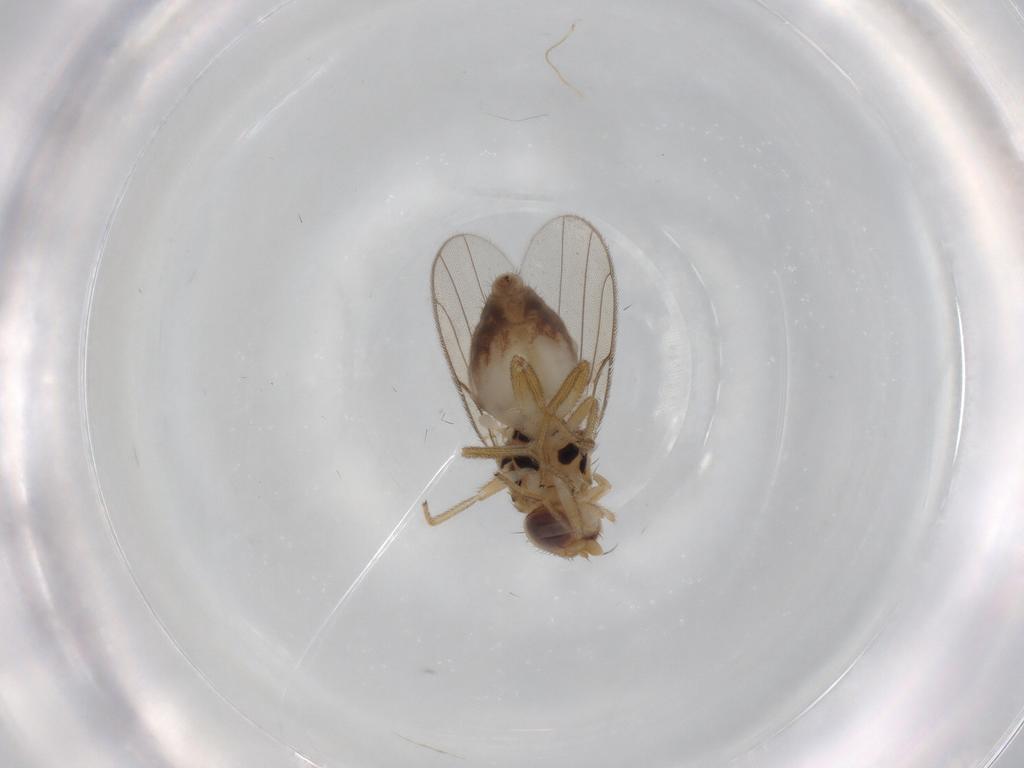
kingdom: Animalia
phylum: Arthropoda
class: Insecta
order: Diptera
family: Chloropidae
